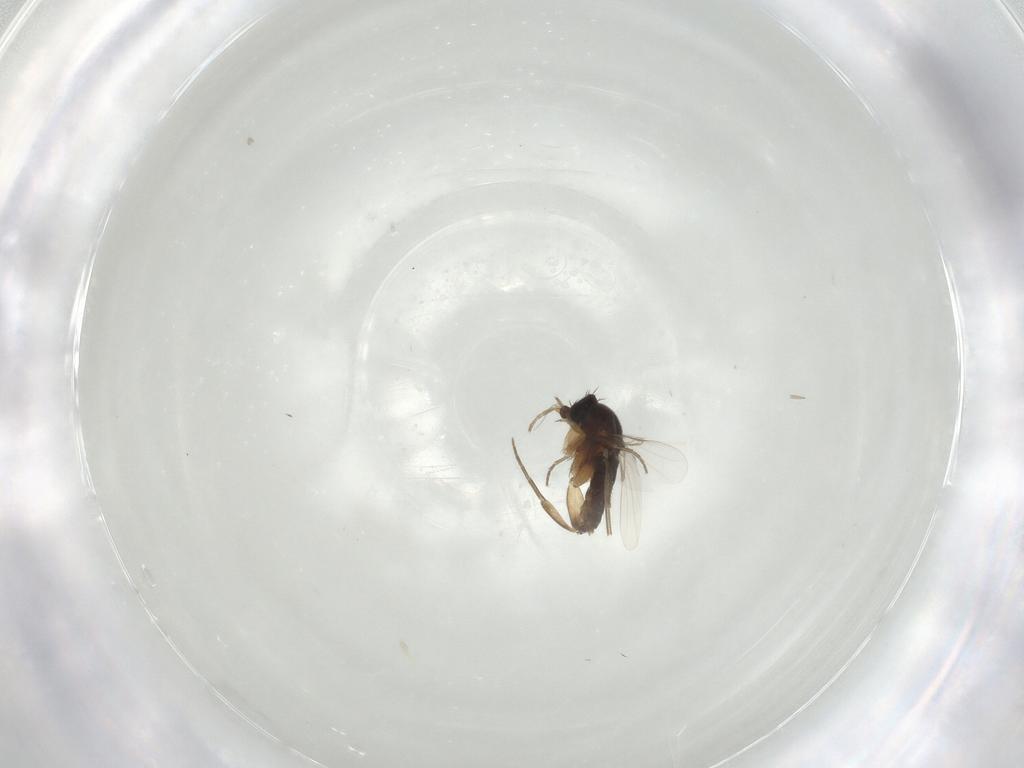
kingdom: Animalia
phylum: Arthropoda
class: Insecta
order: Diptera
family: Phoridae
